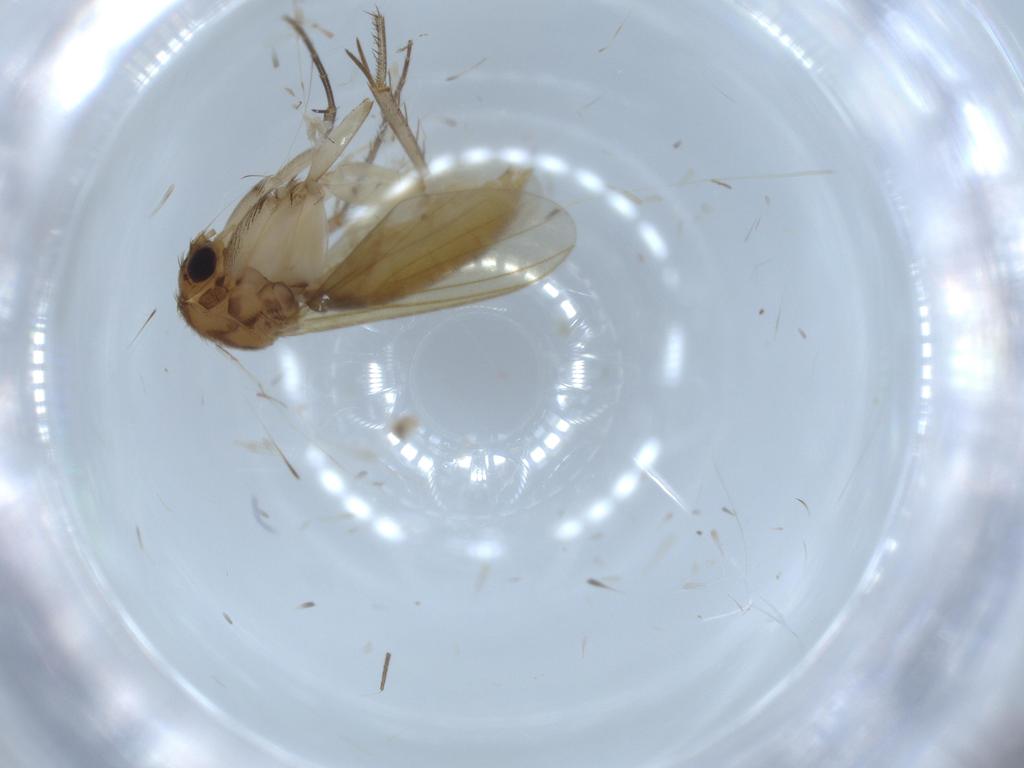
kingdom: Animalia
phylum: Arthropoda
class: Insecta
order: Diptera
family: Mycetophilidae
